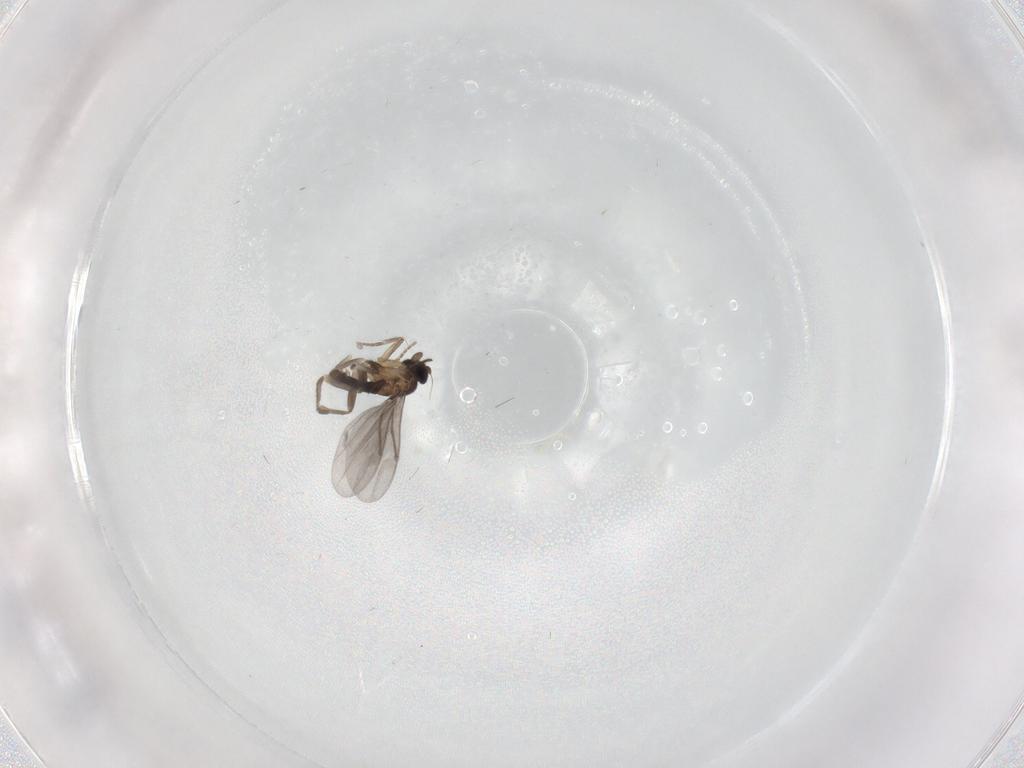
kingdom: Animalia
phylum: Arthropoda
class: Insecta
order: Diptera
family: Chironomidae
